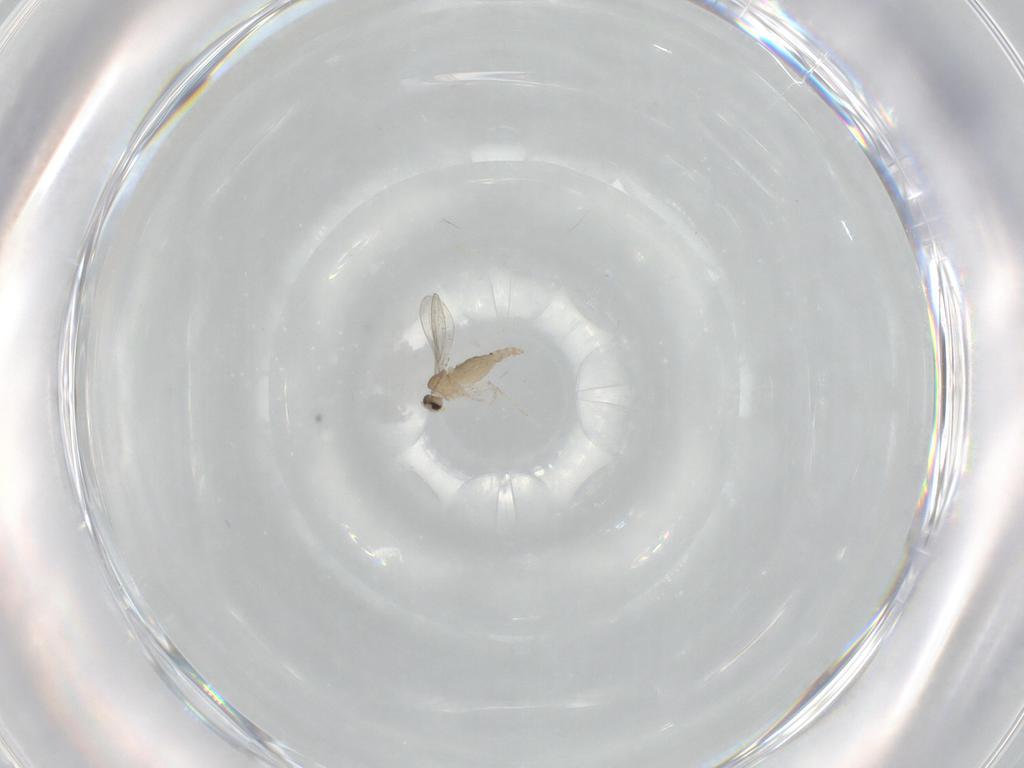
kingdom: Animalia
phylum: Arthropoda
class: Insecta
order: Diptera
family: Cecidomyiidae
